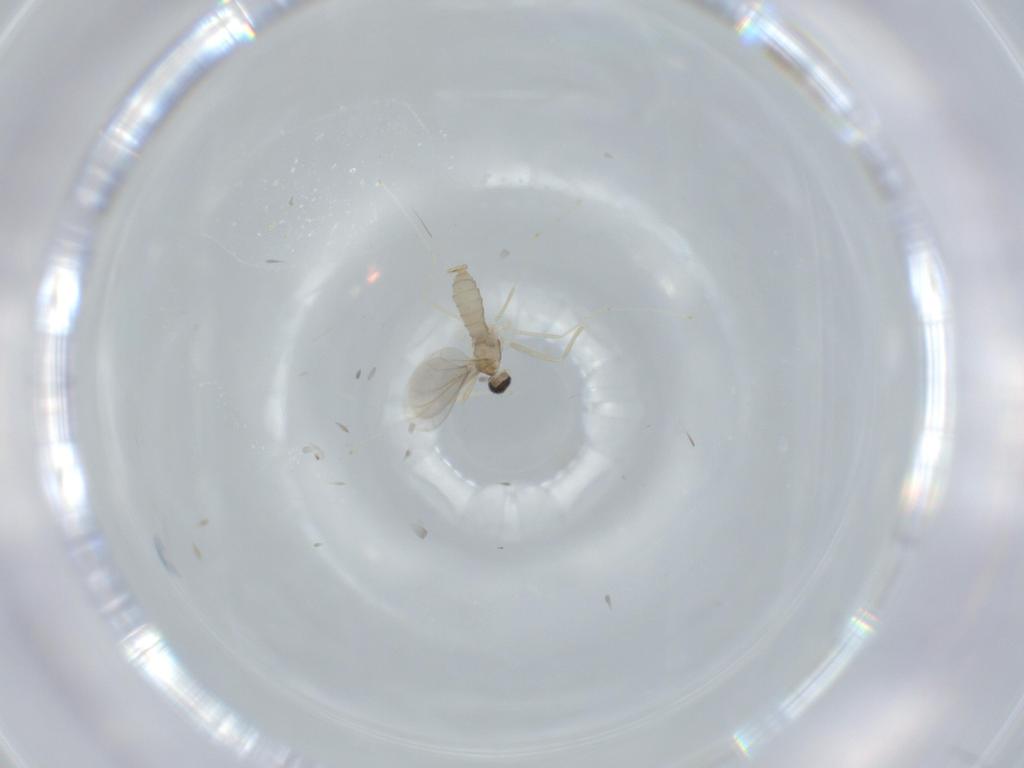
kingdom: Animalia
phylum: Arthropoda
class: Insecta
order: Diptera
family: Cecidomyiidae
